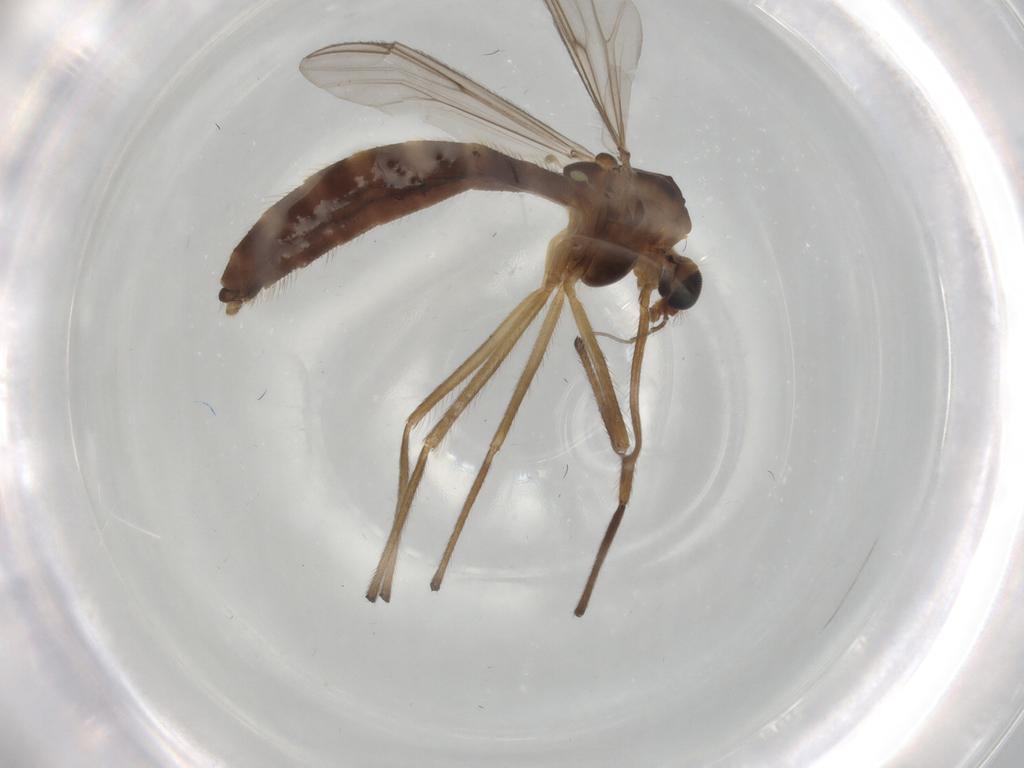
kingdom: Animalia
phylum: Arthropoda
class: Insecta
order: Diptera
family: Chironomidae
